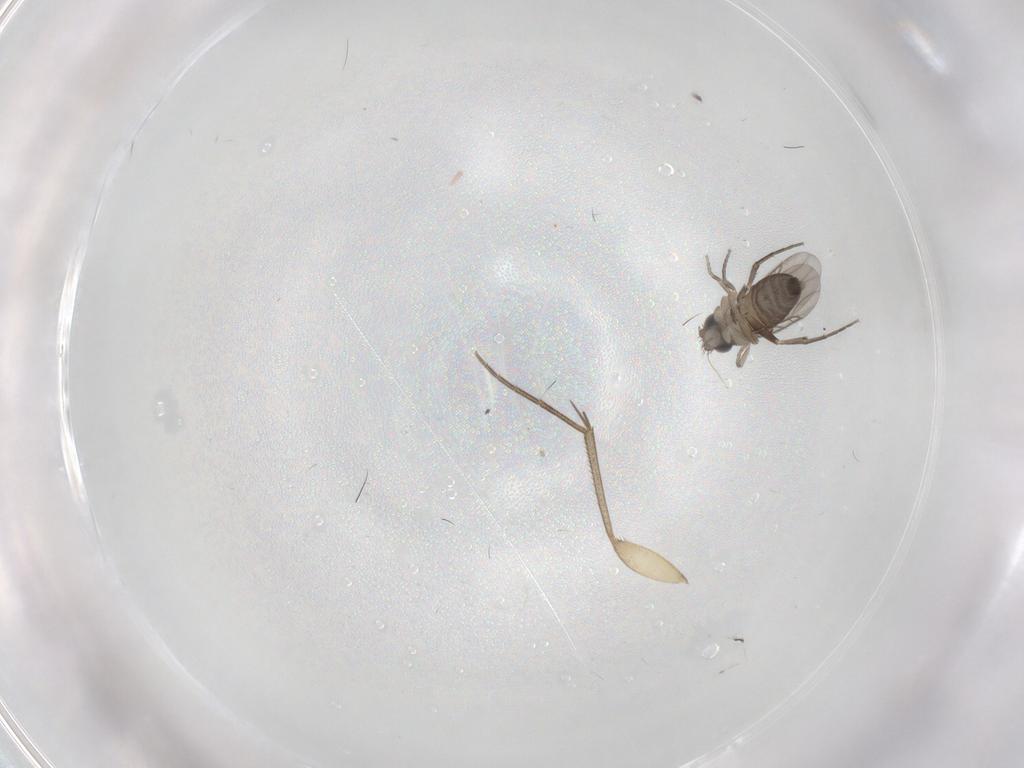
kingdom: Animalia
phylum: Arthropoda
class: Insecta
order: Diptera
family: Phoridae
